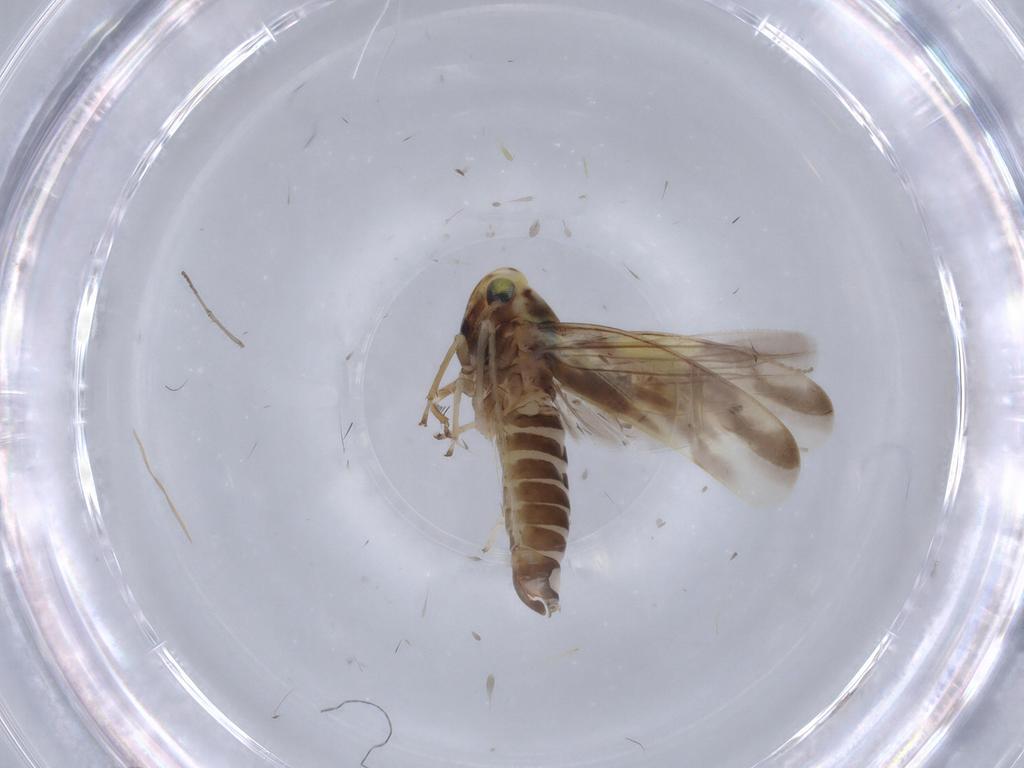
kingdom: Animalia
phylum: Arthropoda
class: Insecta
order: Hemiptera
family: Cicadellidae
